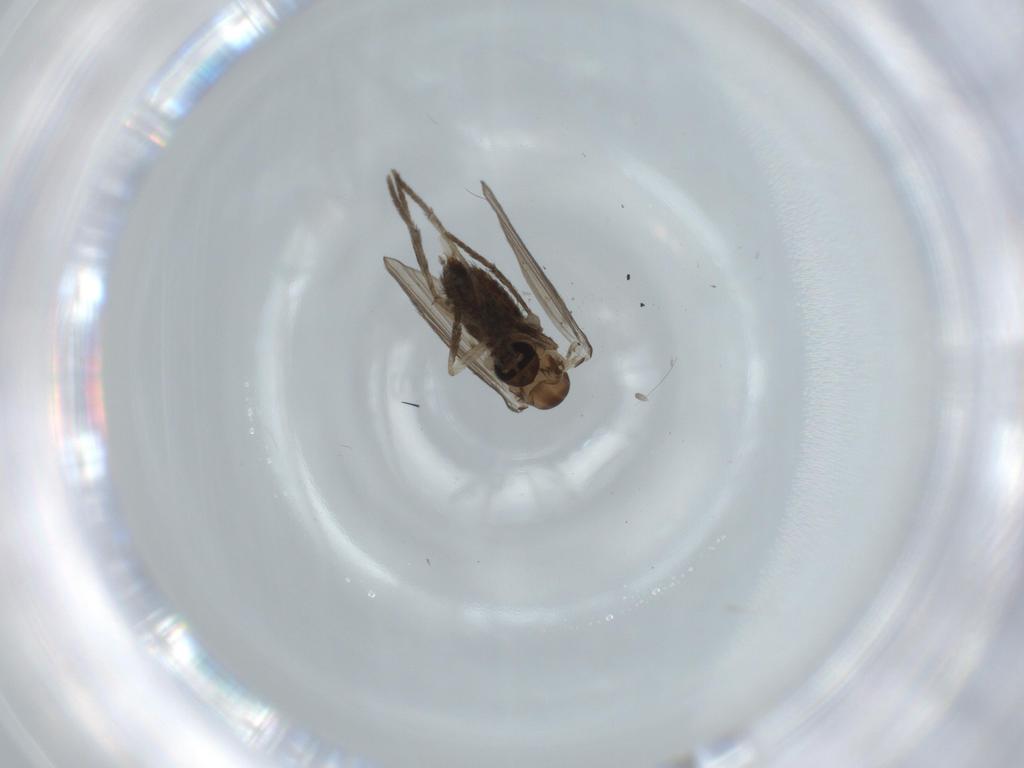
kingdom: Animalia
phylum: Arthropoda
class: Insecta
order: Diptera
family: Psychodidae
